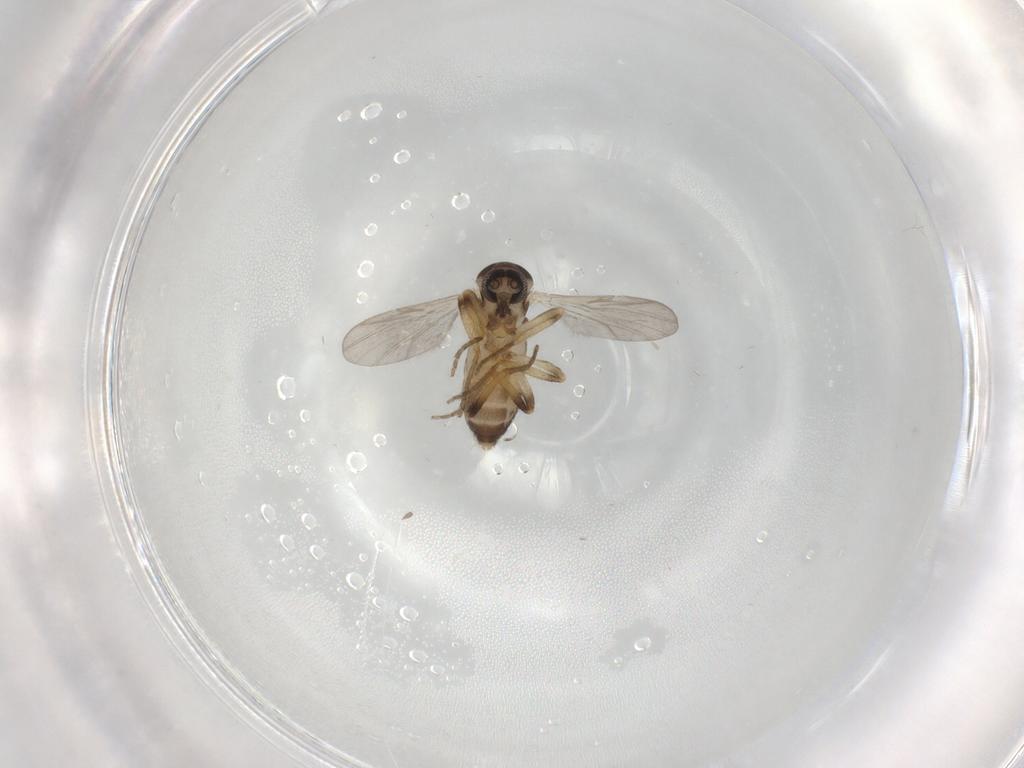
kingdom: Animalia
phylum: Arthropoda
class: Insecta
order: Diptera
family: Ceratopogonidae
